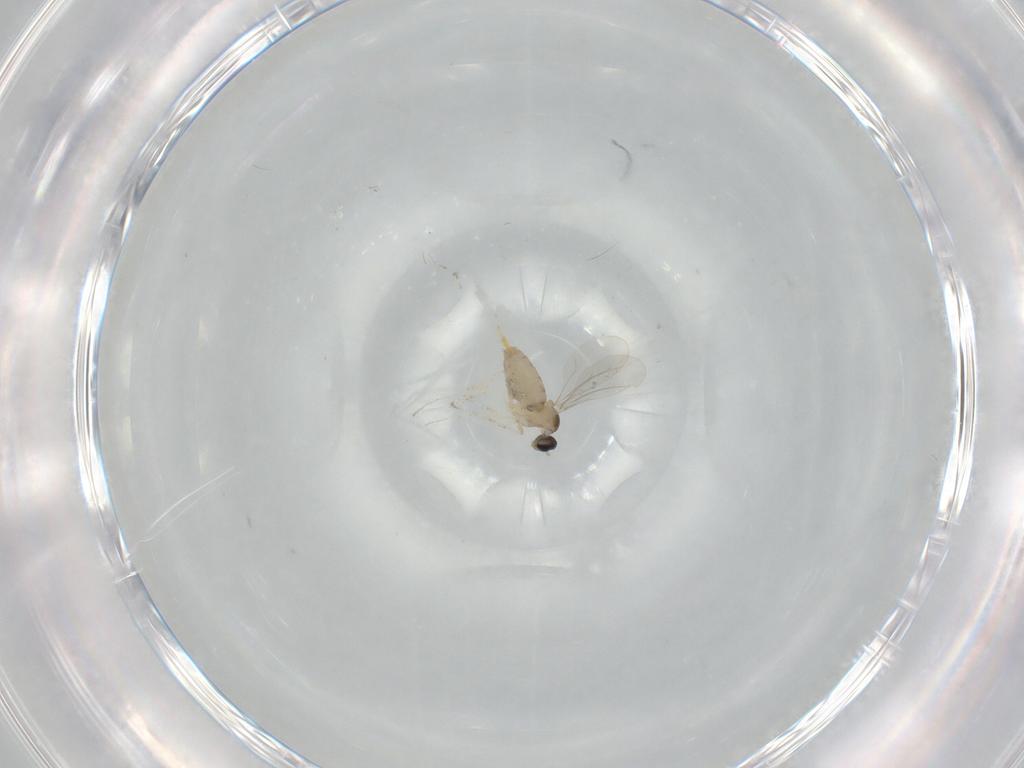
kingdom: Animalia
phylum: Arthropoda
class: Insecta
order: Diptera
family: Cecidomyiidae
